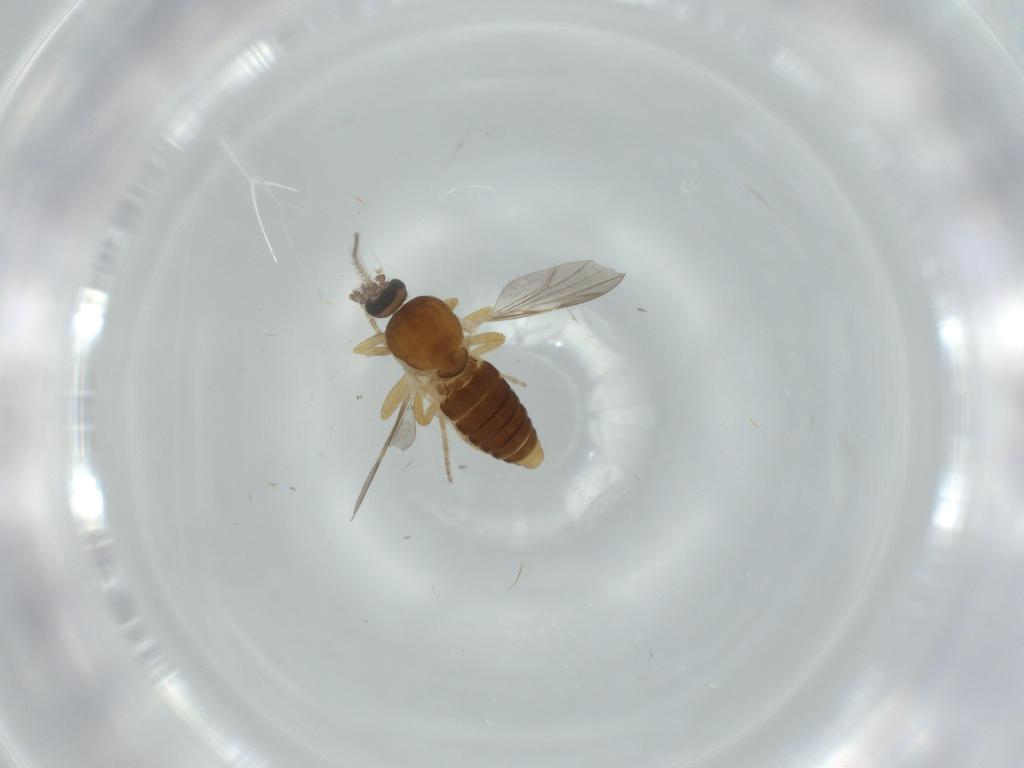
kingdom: Animalia
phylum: Arthropoda
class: Insecta
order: Diptera
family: Ceratopogonidae
